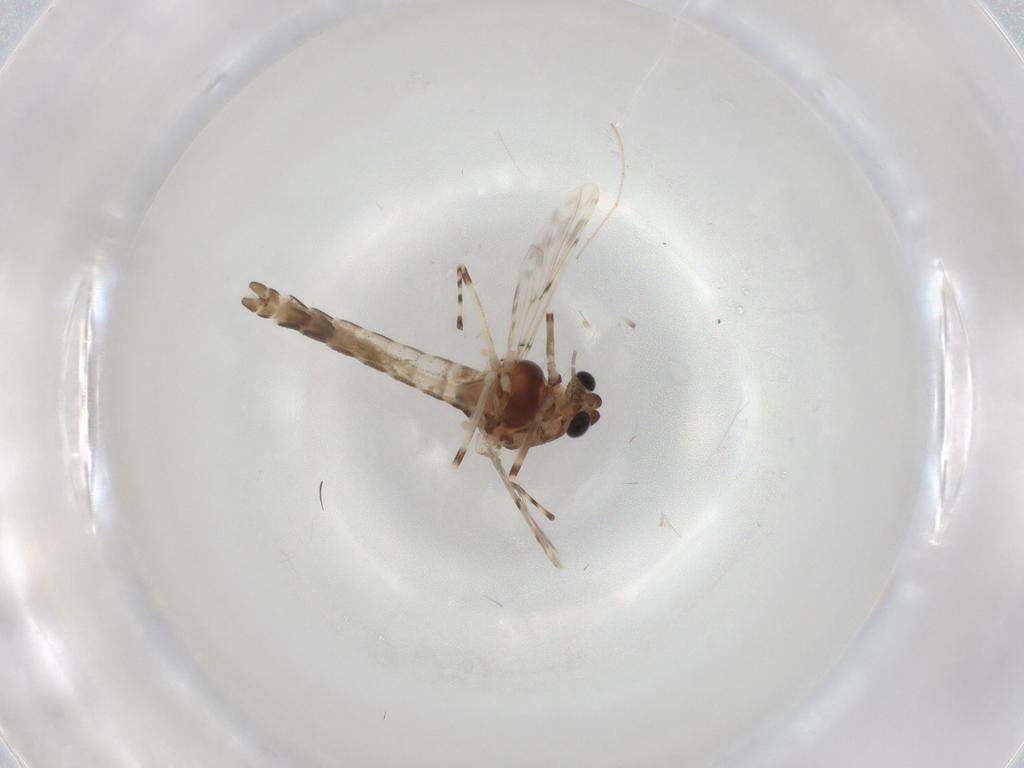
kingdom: Animalia
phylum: Arthropoda
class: Insecta
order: Diptera
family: Chironomidae
